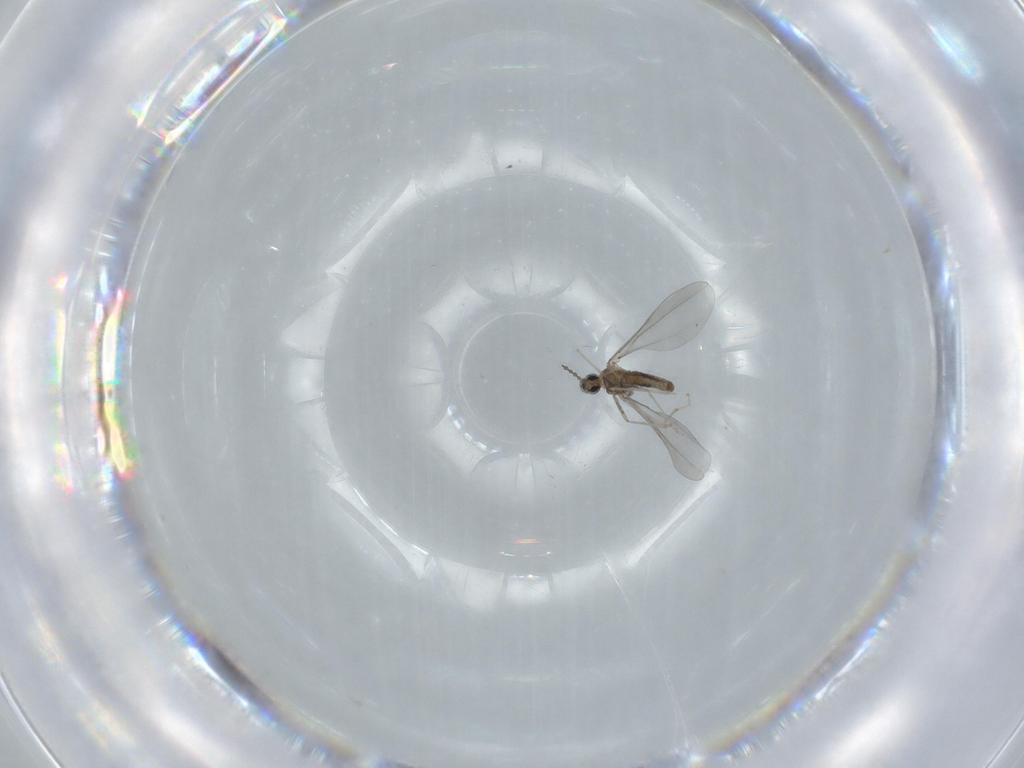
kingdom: Animalia
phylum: Arthropoda
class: Insecta
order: Diptera
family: Cecidomyiidae
